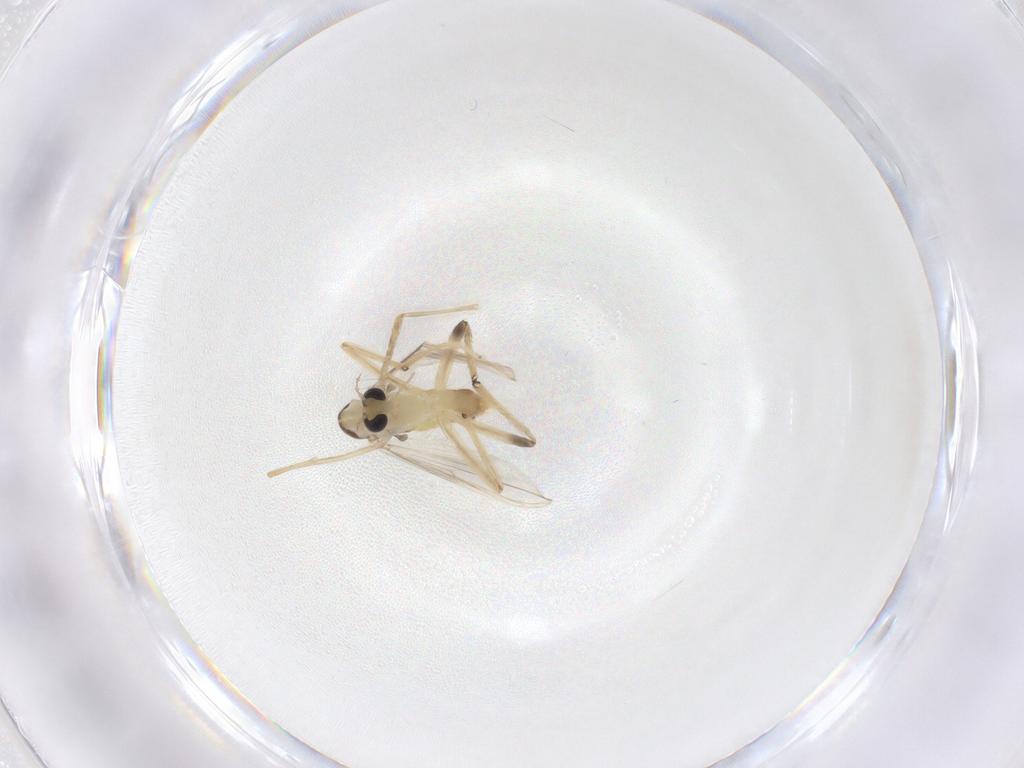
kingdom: Animalia
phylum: Arthropoda
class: Insecta
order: Diptera
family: Chironomidae
